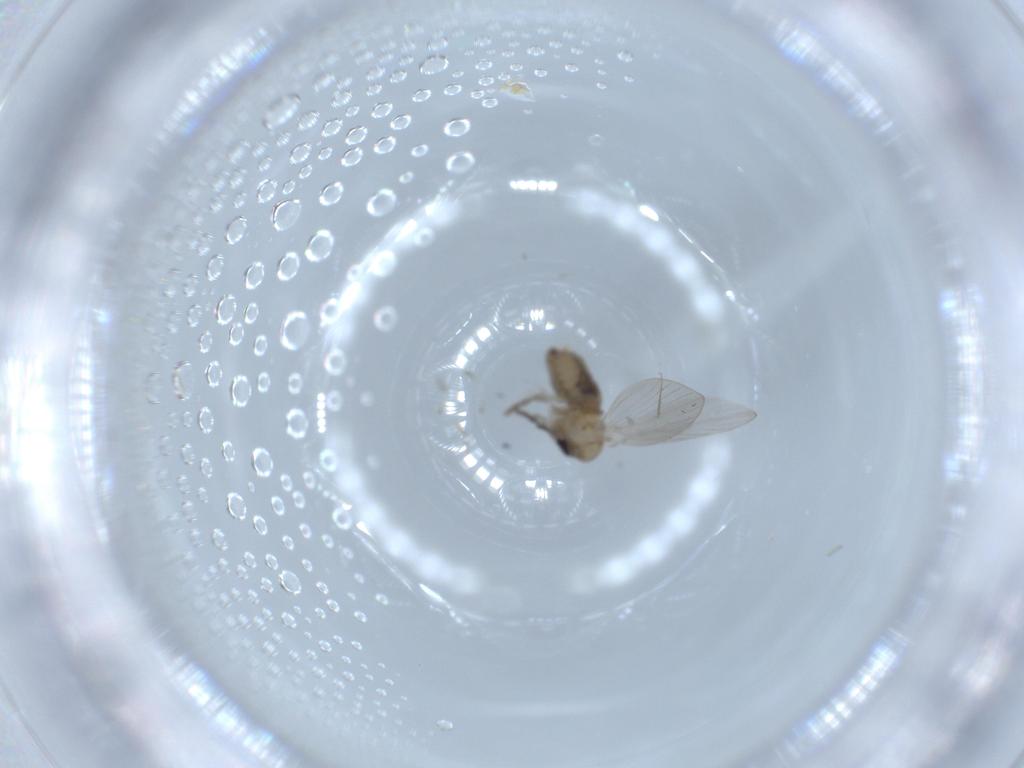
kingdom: Animalia
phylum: Arthropoda
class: Insecta
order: Diptera
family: Psychodidae
